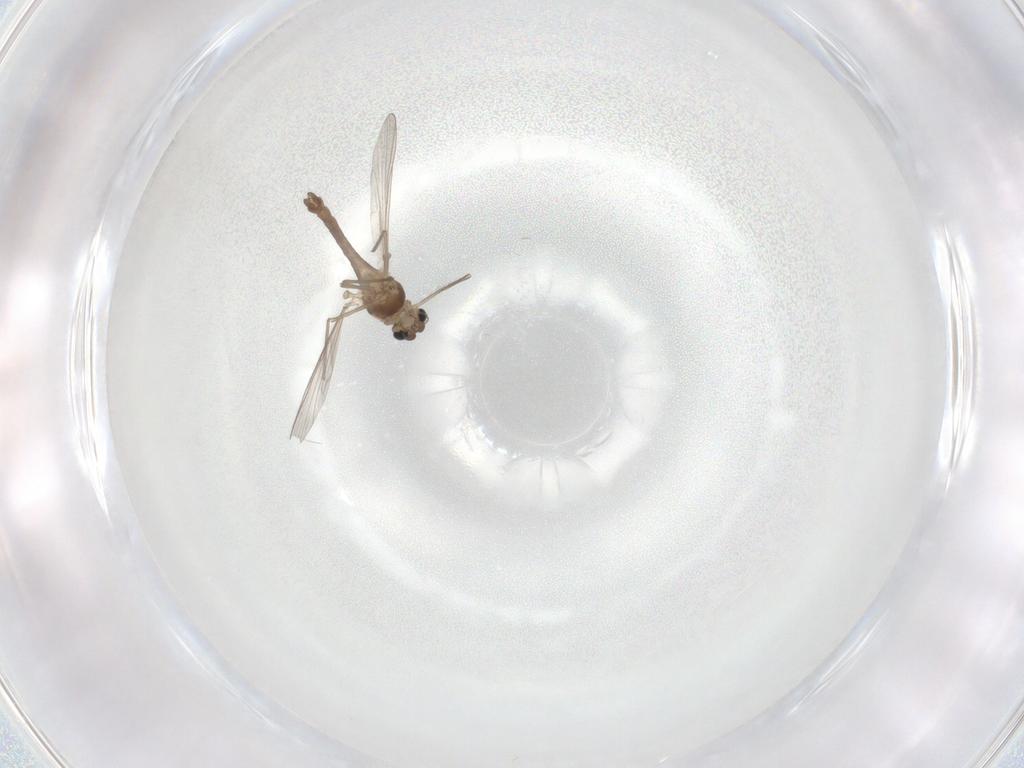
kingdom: Animalia
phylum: Arthropoda
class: Insecta
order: Diptera
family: Chironomidae
